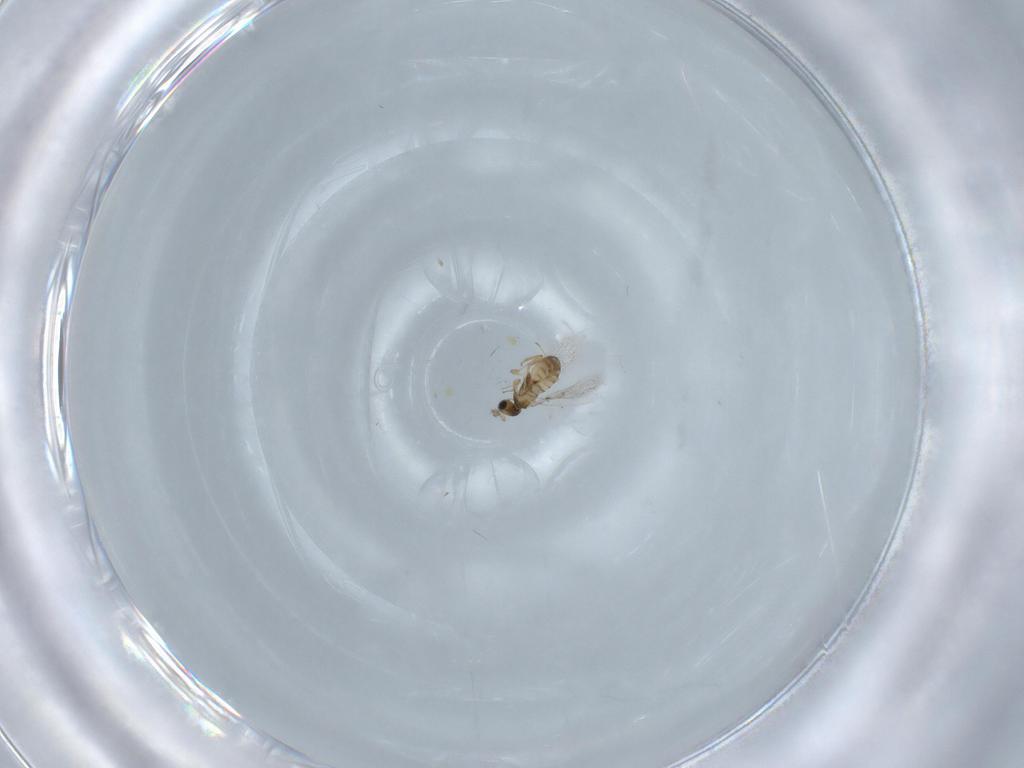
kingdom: Animalia
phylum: Arthropoda
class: Insecta
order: Hymenoptera
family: Trichogrammatidae
